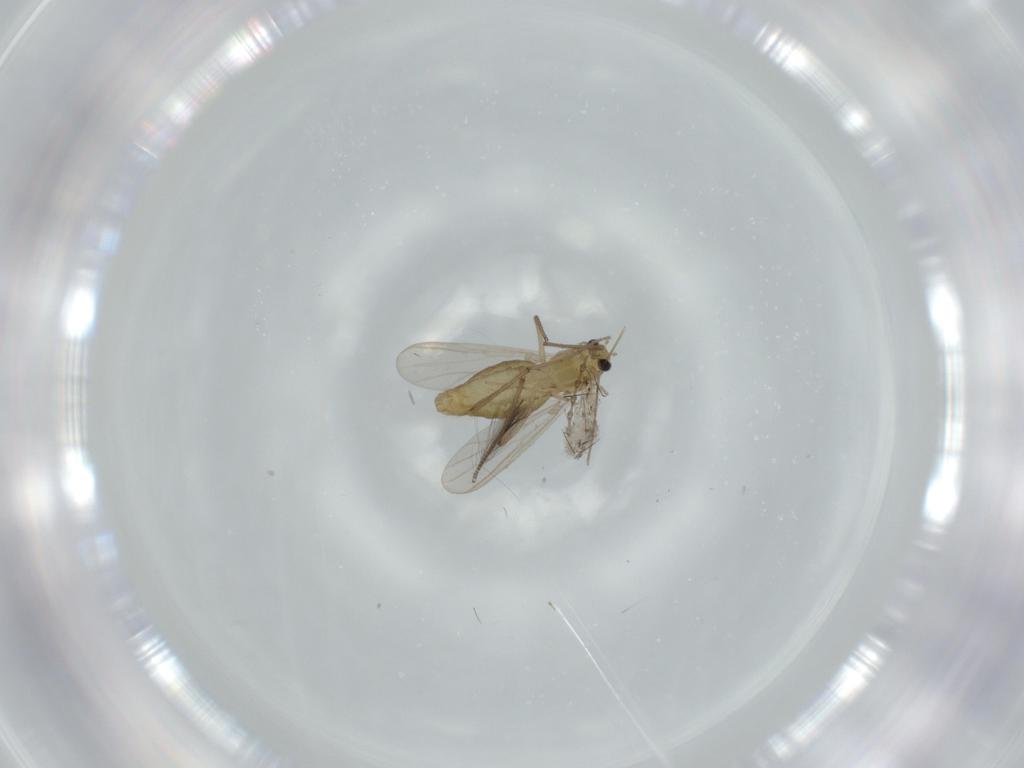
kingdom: Animalia
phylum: Arthropoda
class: Insecta
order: Diptera
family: Chironomidae
